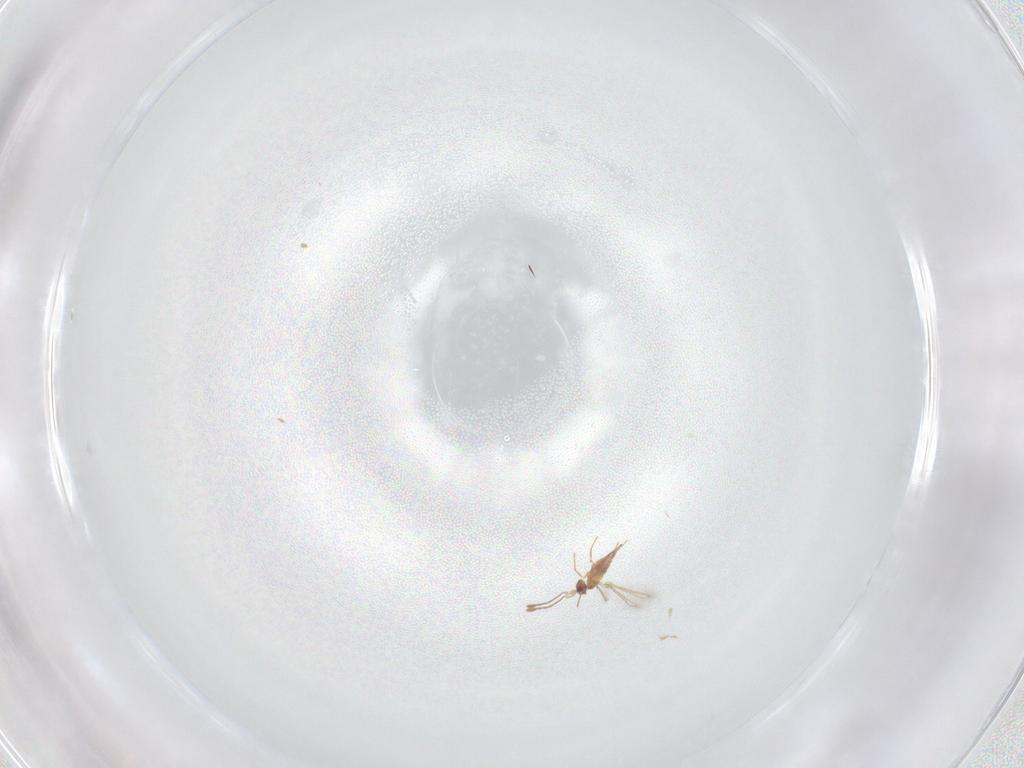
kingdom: Animalia
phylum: Arthropoda
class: Insecta
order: Hymenoptera
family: Mymaridae
